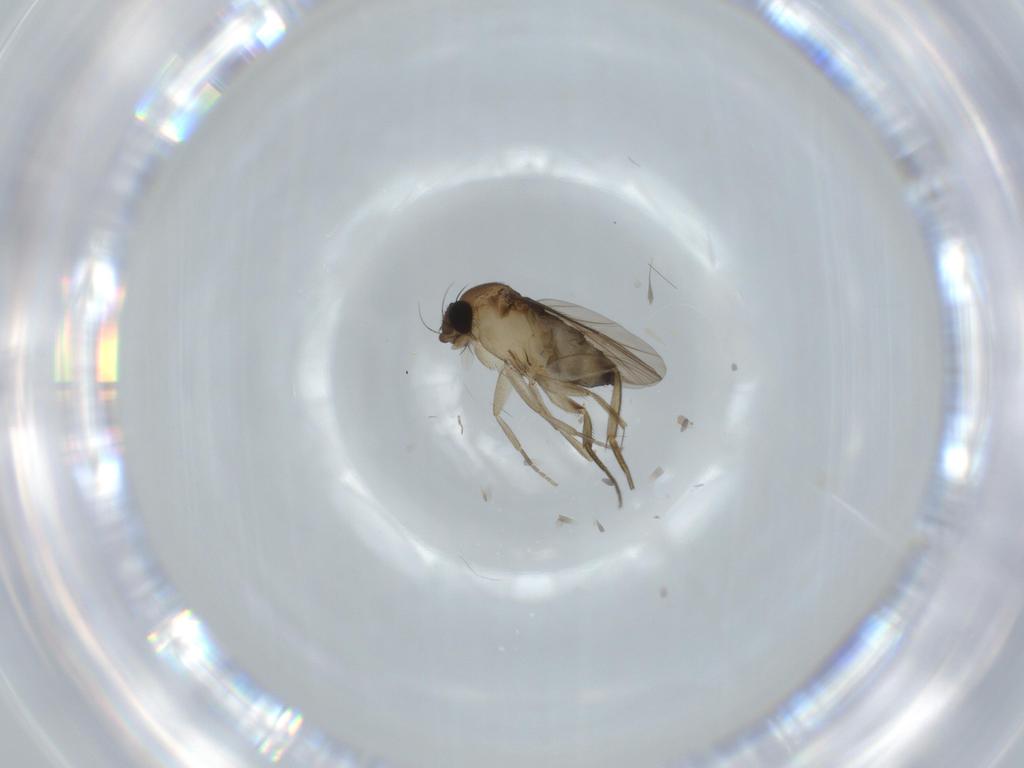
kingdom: Animalia
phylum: Arthropoda
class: Insecta
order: Diptera
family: Phoridae
